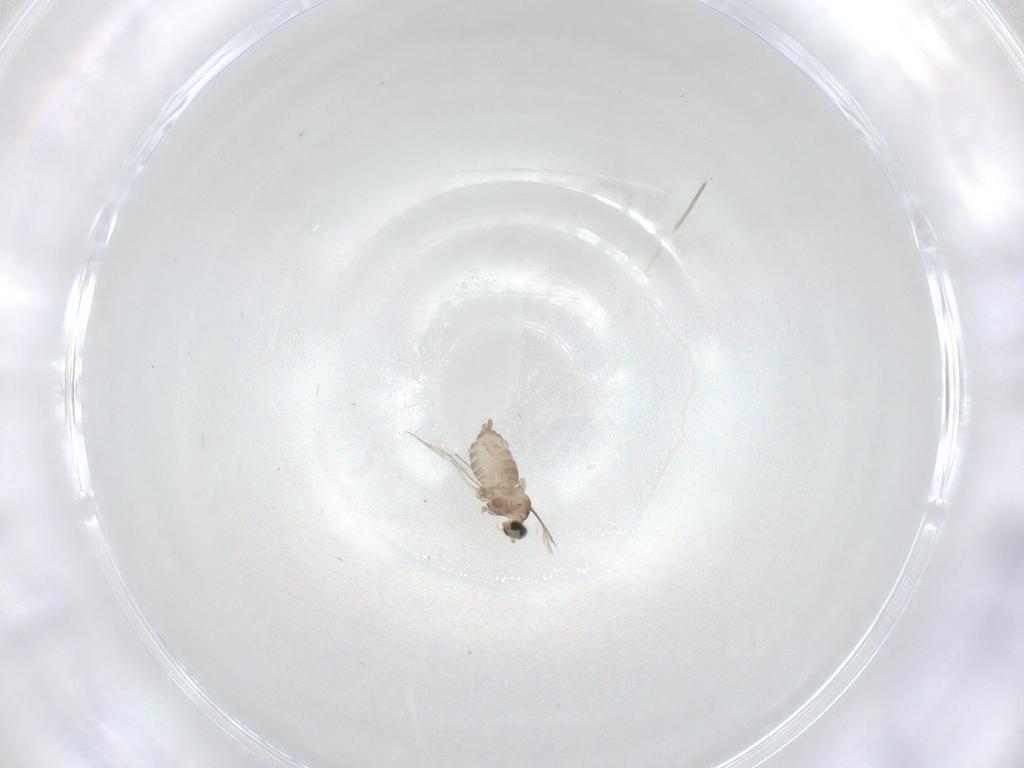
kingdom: Animalia
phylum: Arthropoda
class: Insecta
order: Diptera
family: Cecidomyiidae
